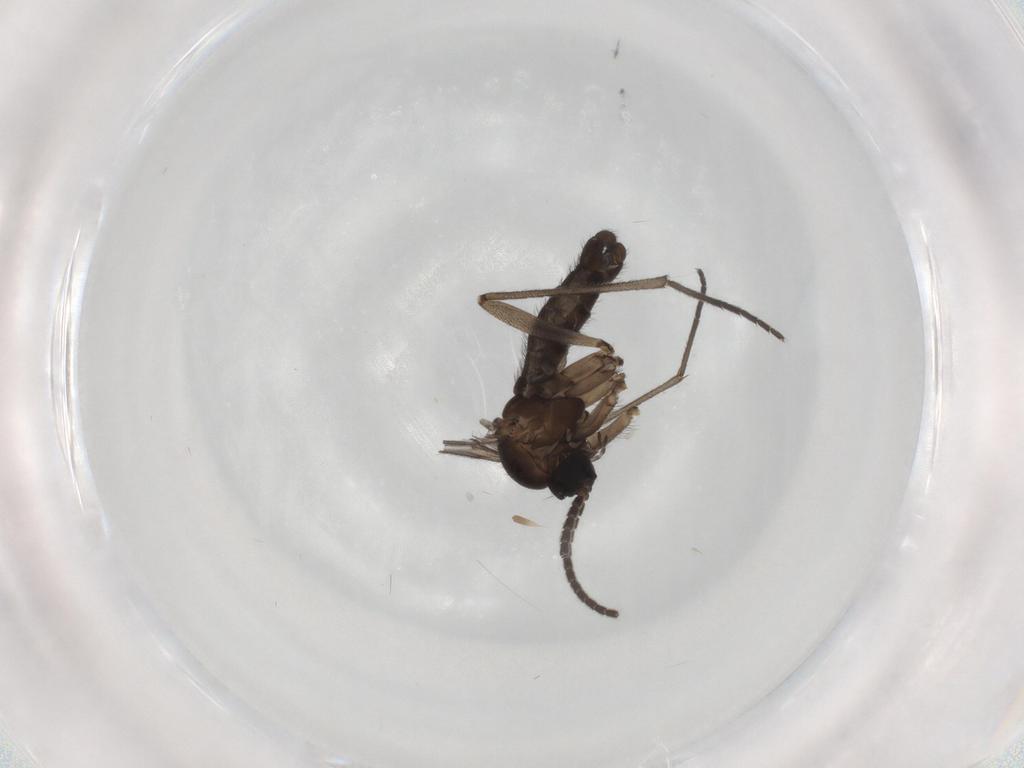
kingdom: Animalia
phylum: Arthropoda
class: Insecta
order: Diptera
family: Sciaridae
